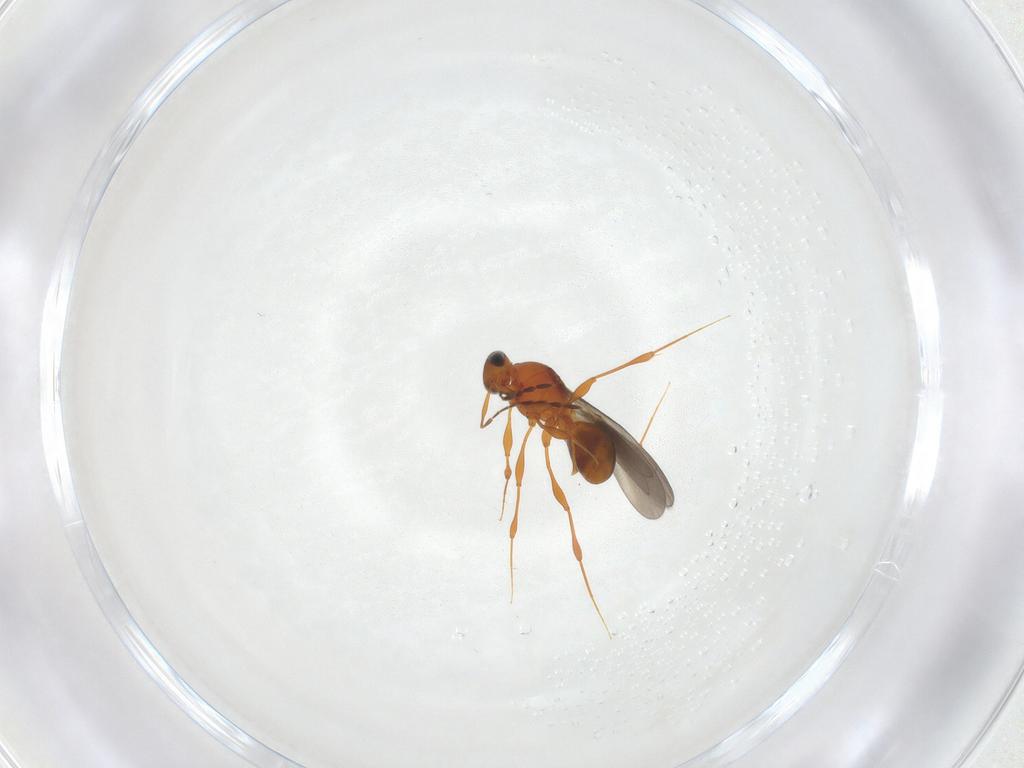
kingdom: Animalia
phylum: Arthropoda
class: Insecta
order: Hymenoptera
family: Platygastridae
